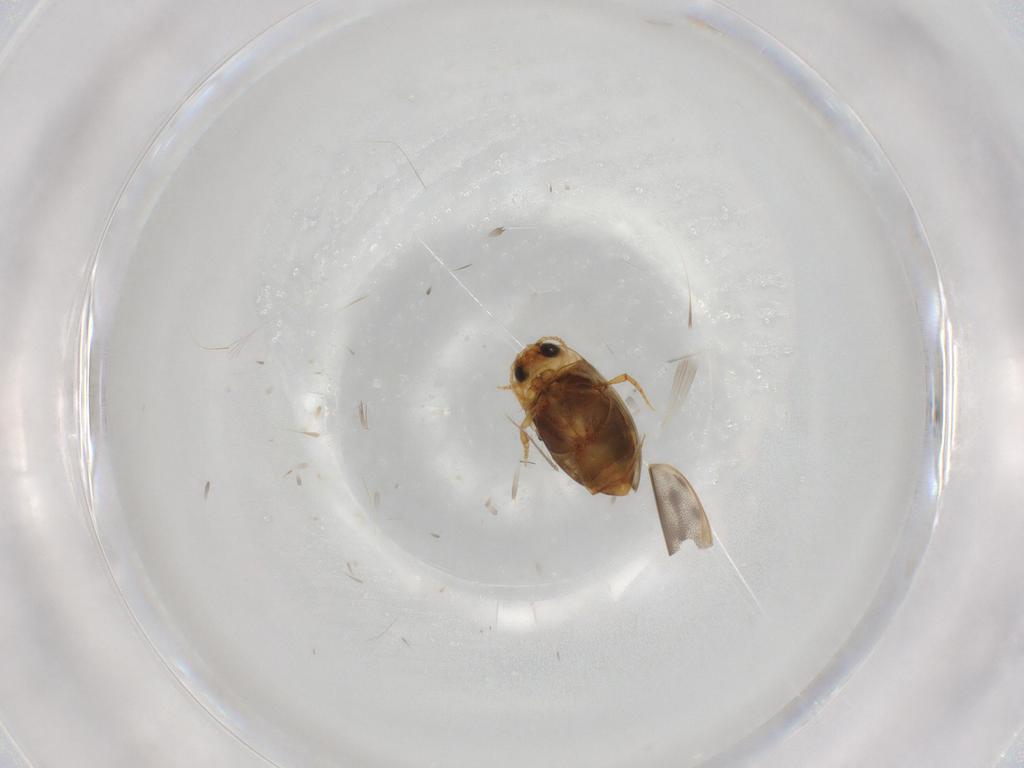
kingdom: Animalia
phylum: Arthropoda
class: Insecta
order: Coleoptera
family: Dytiscidae
